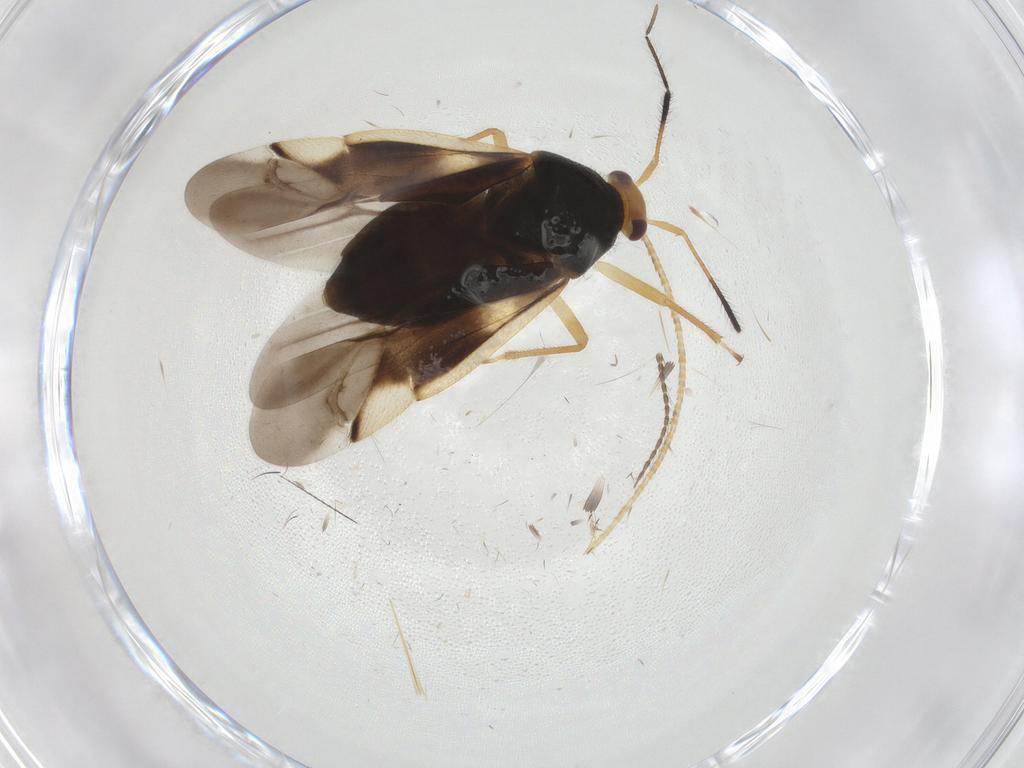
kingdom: Animalia
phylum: Arthropoda
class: Insecta
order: Hemiptera
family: Miridae
